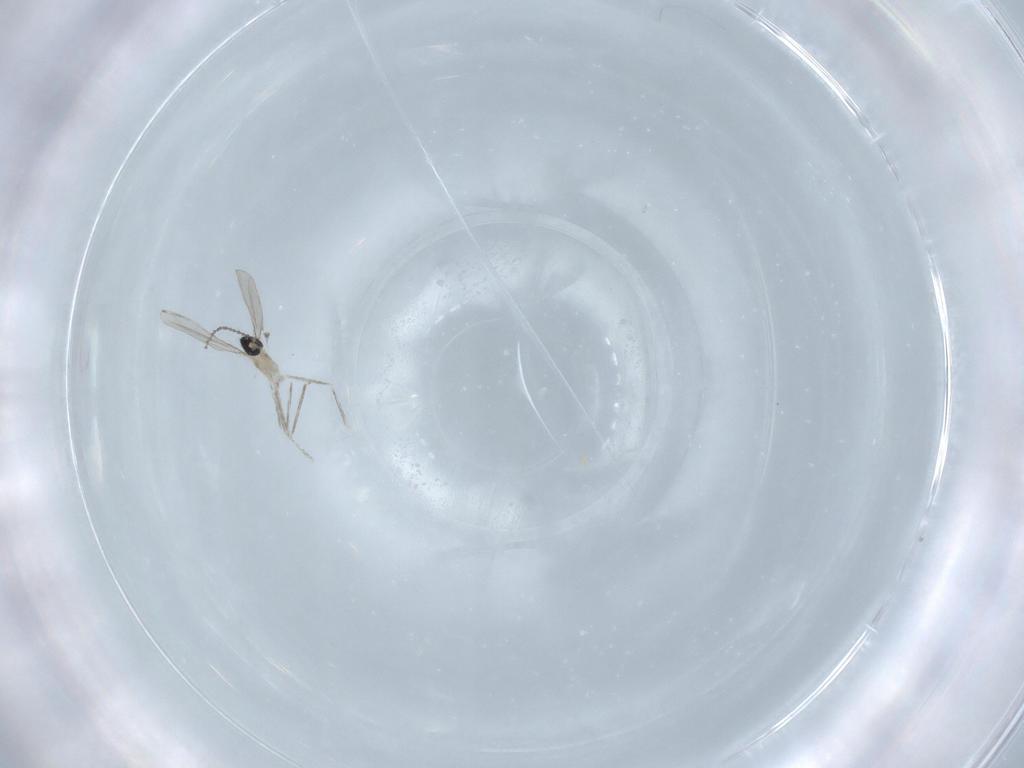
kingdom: Animalia
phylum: Arthropoda
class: Insecta
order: Diptera
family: Cecidomyiidae
